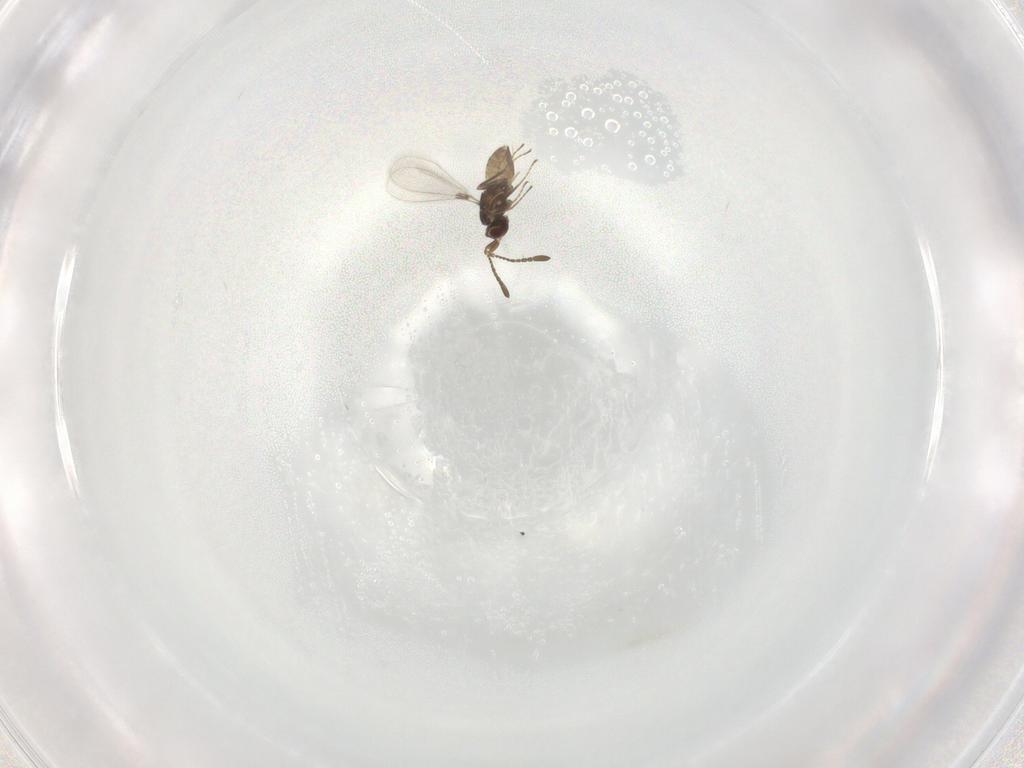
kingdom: Animalia
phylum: Arthropoda
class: Insecta
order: Hymenoptera
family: Mymaridae
